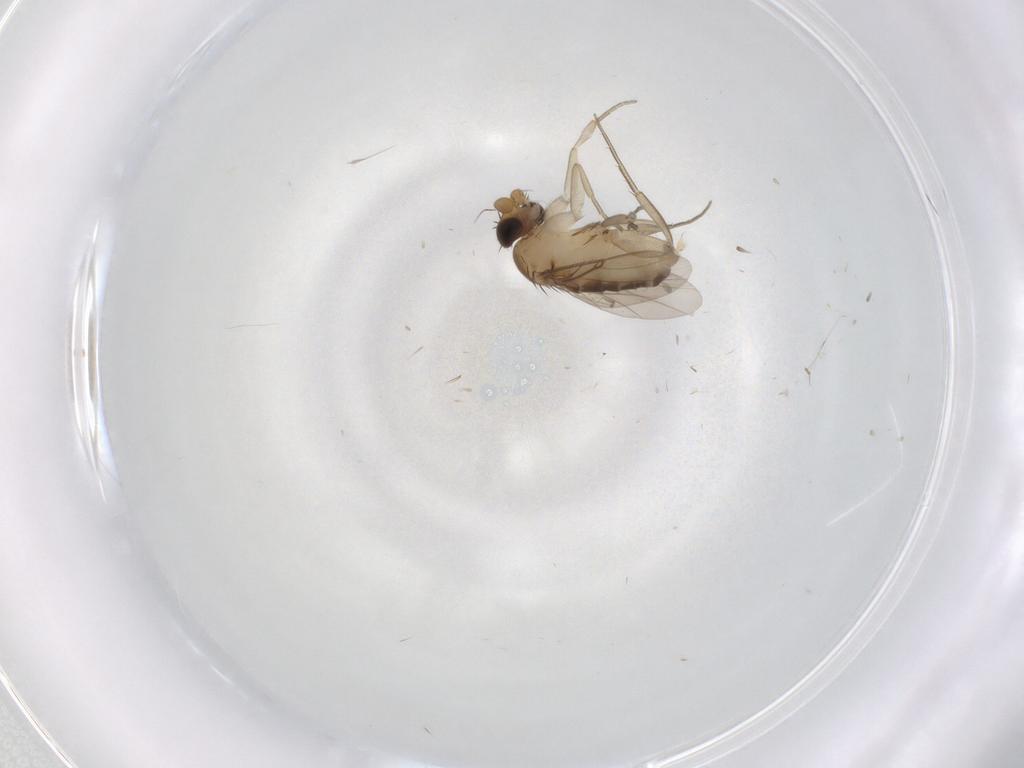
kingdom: Animalia
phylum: Arthropoda
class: Insecta
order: Diptera
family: Phoridae
